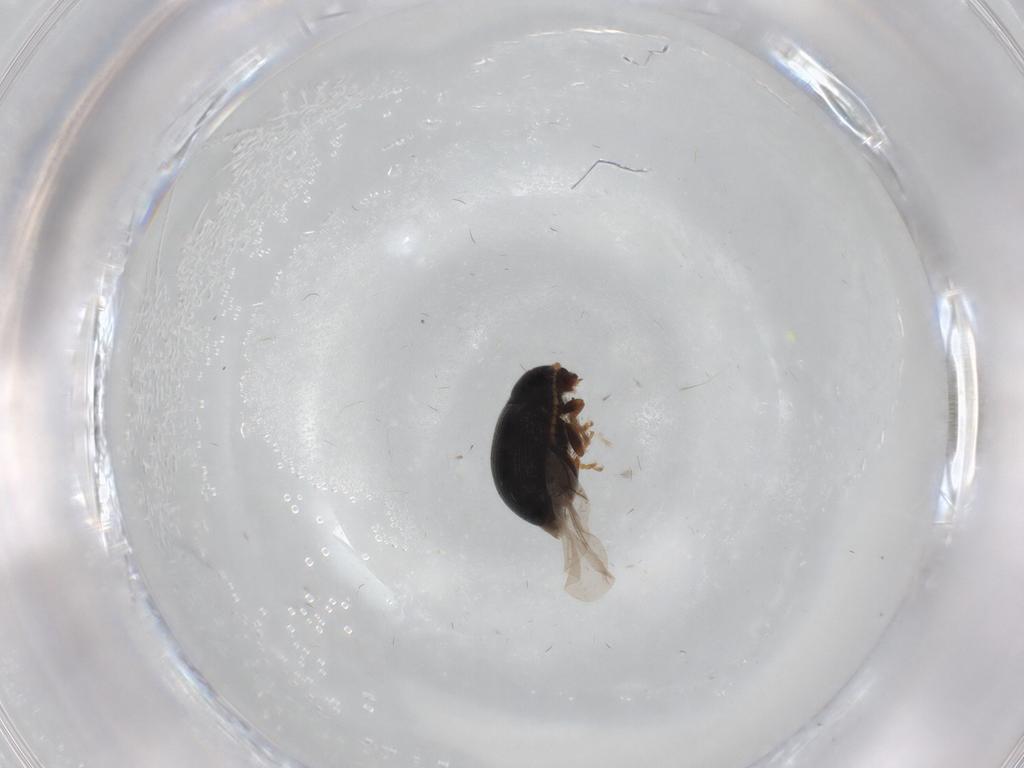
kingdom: Animalia
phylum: Arthropoda
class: Insecta
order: Coleoptera
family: Chrysomelidae
